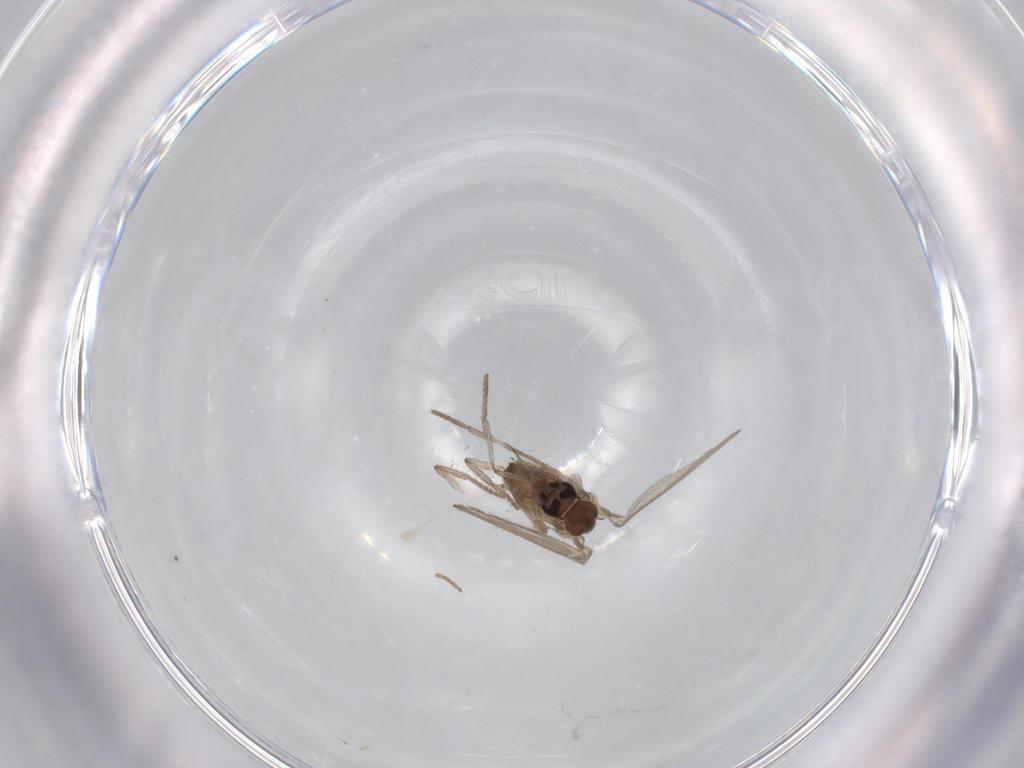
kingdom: Animalia
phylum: Arthropoda
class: Insecta
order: Diptera
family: Psychodidae
